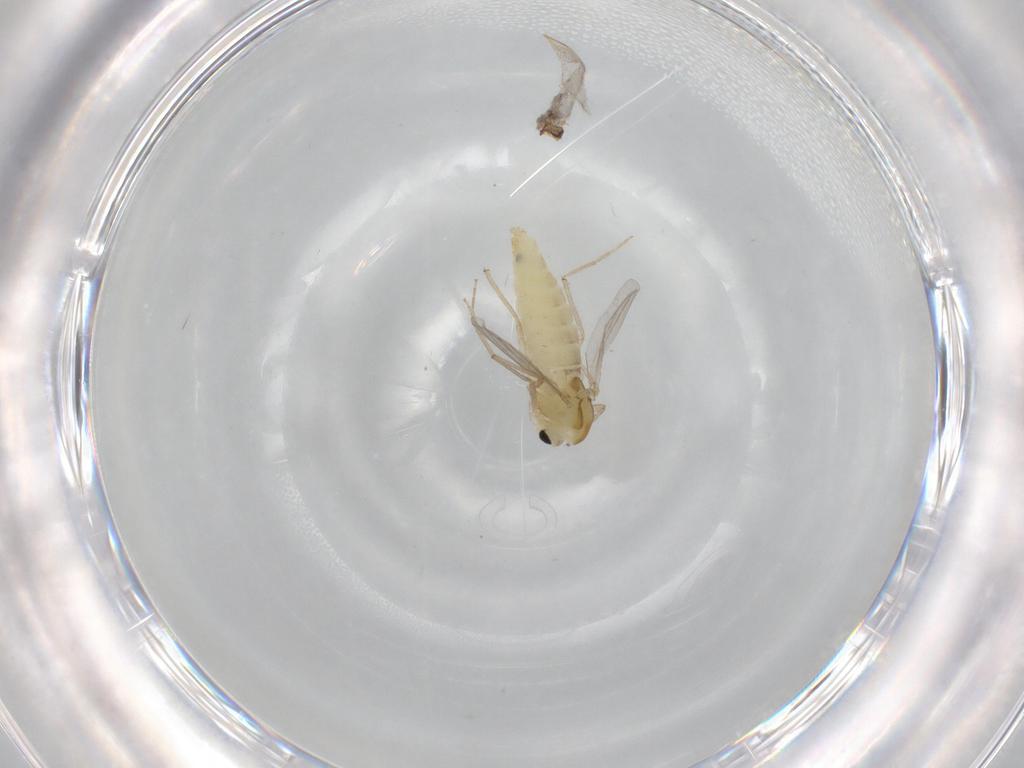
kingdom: Animalia
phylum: Arthropoda
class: Insecta
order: Diptera
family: Chironomidae
